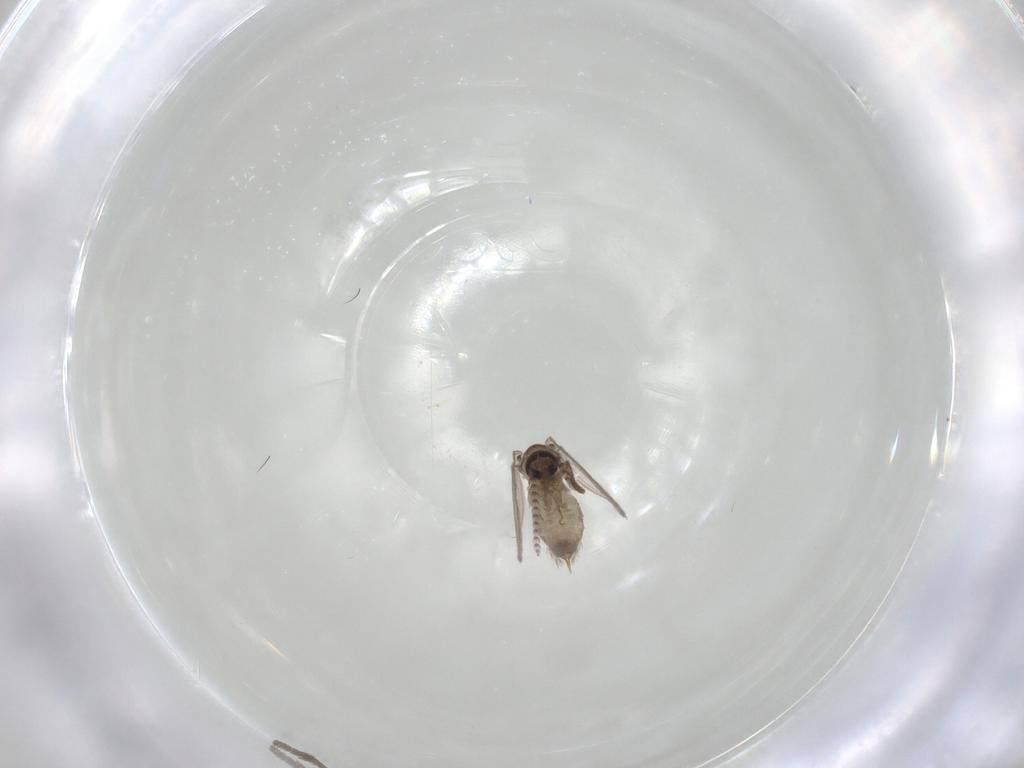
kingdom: Animalia
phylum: Arthropoda
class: Insecta
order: Diptera
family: Psychodidae
